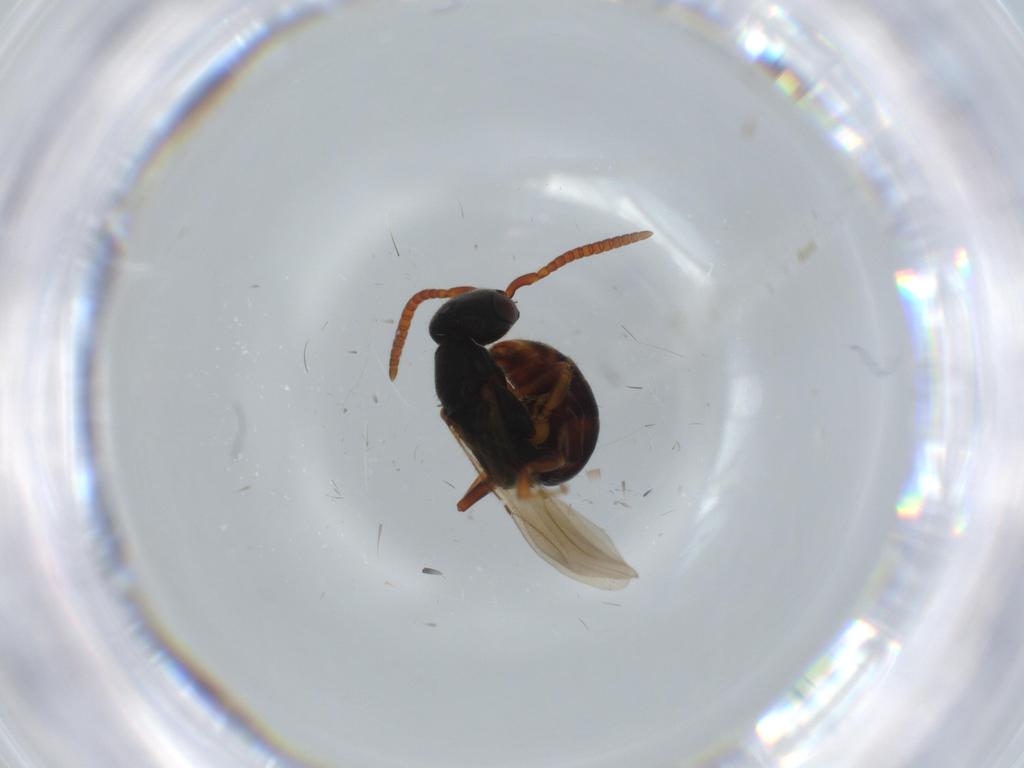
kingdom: Animalia
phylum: Arthropoda
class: Insecta
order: Hymenoptera
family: Bethylidae
